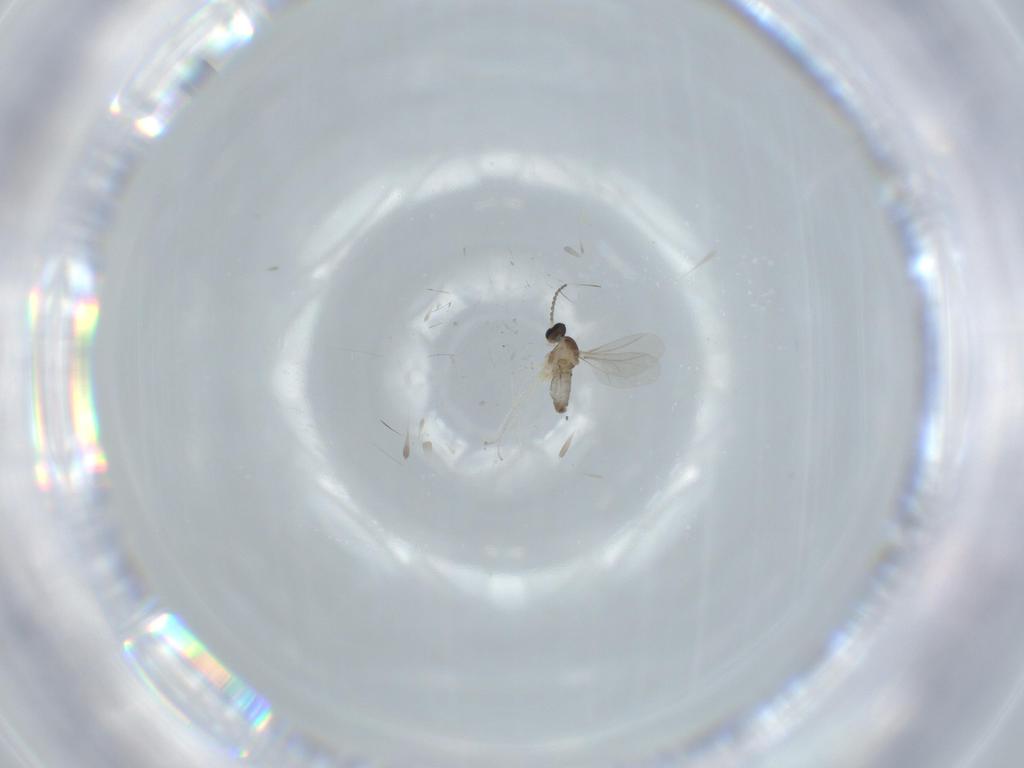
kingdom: Animalia
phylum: Arthropoda
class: Insecta
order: Diptera
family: Cecidomyiidae
